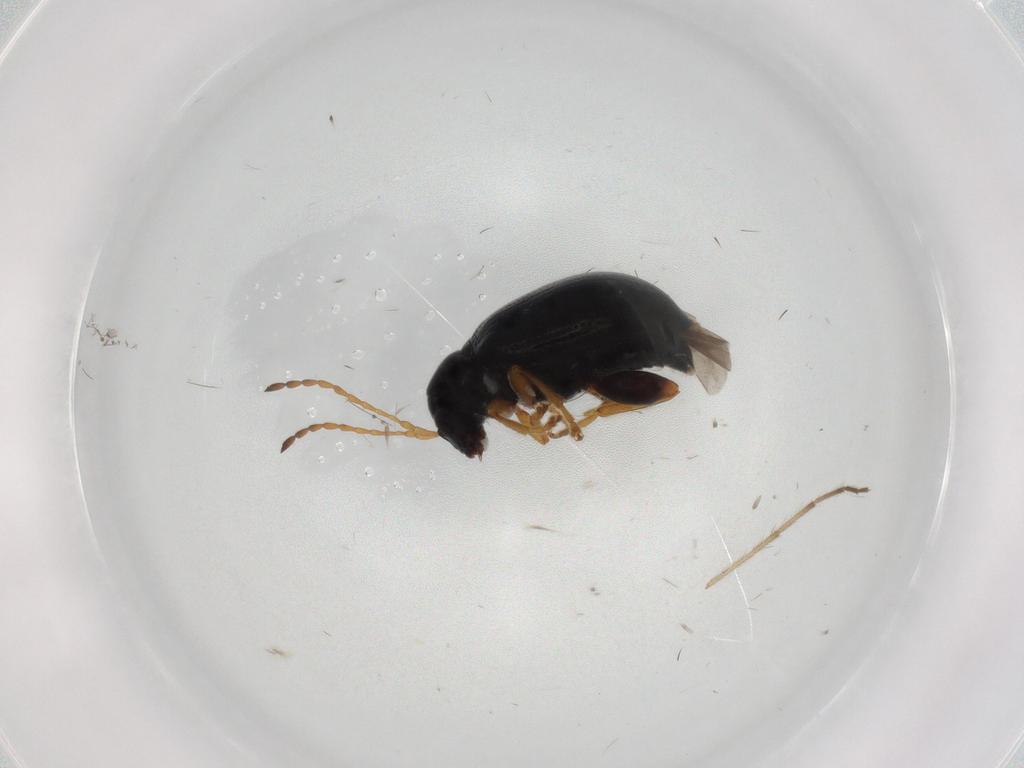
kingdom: Animalia
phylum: Arthropoda
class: Insecta
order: Coleoptera
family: Chrysomelidae
